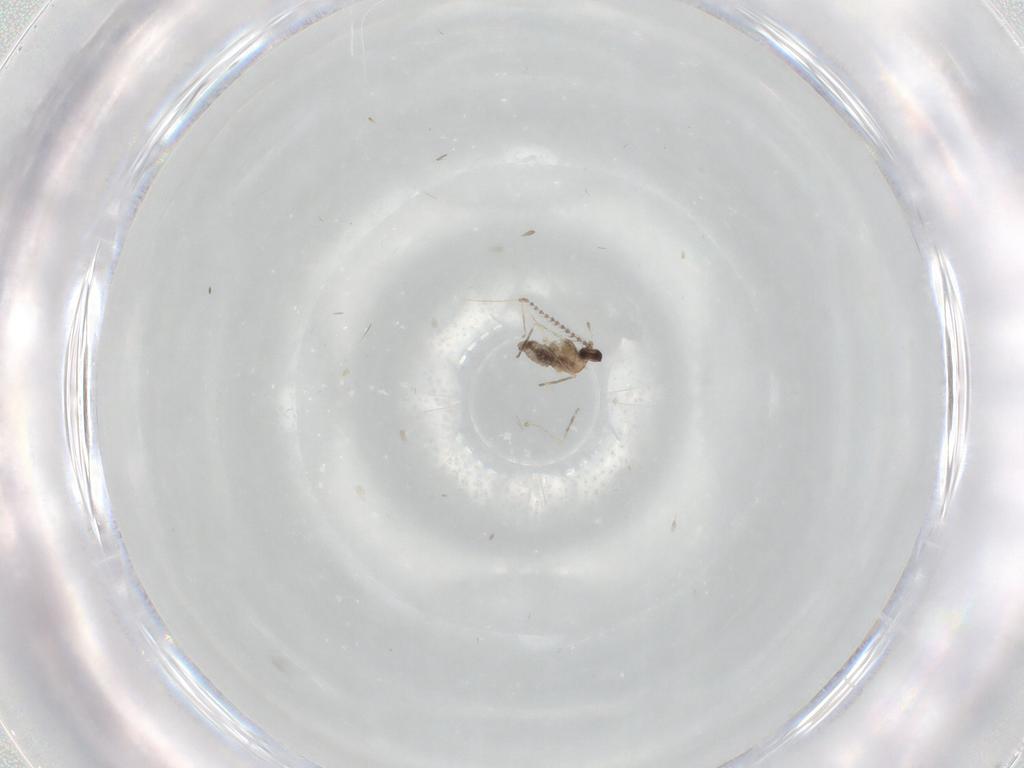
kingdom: Animalia
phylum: Arthropoda
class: Insecta
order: Diptera
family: Cecidomyiidae
